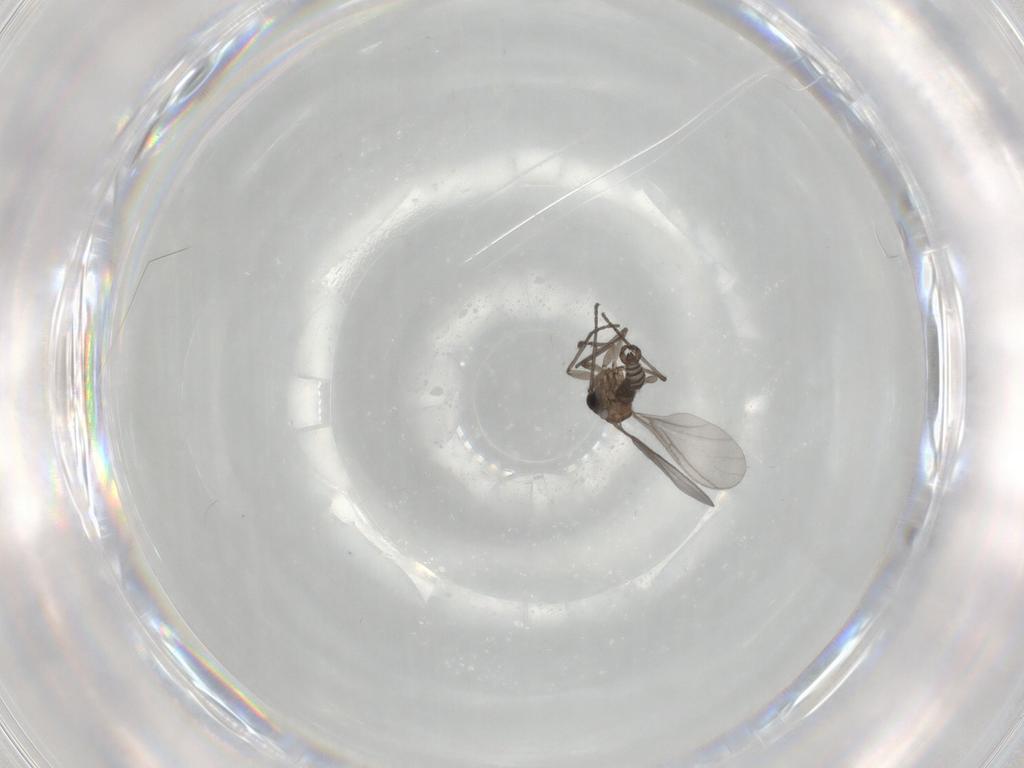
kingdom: Animalia
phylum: Arthropoda
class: Insecta
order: Diptera
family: Sciaridae
